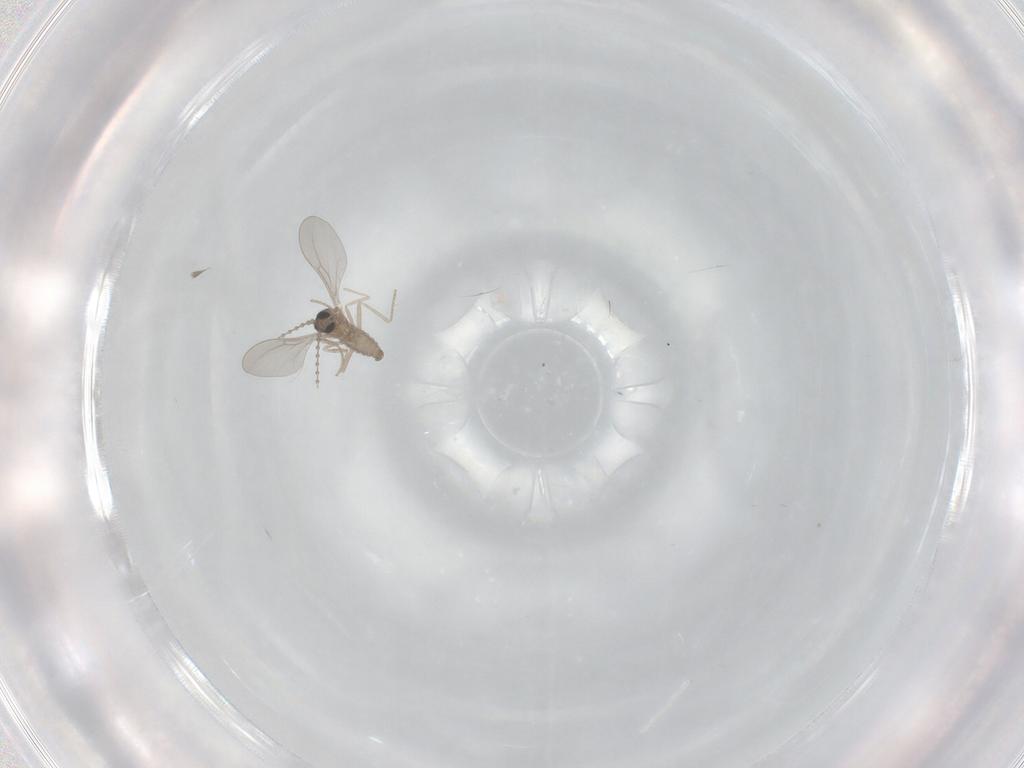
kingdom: Animalia
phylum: Arthropoda
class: Insecta
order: Diptera
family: Cecidomyiidae
